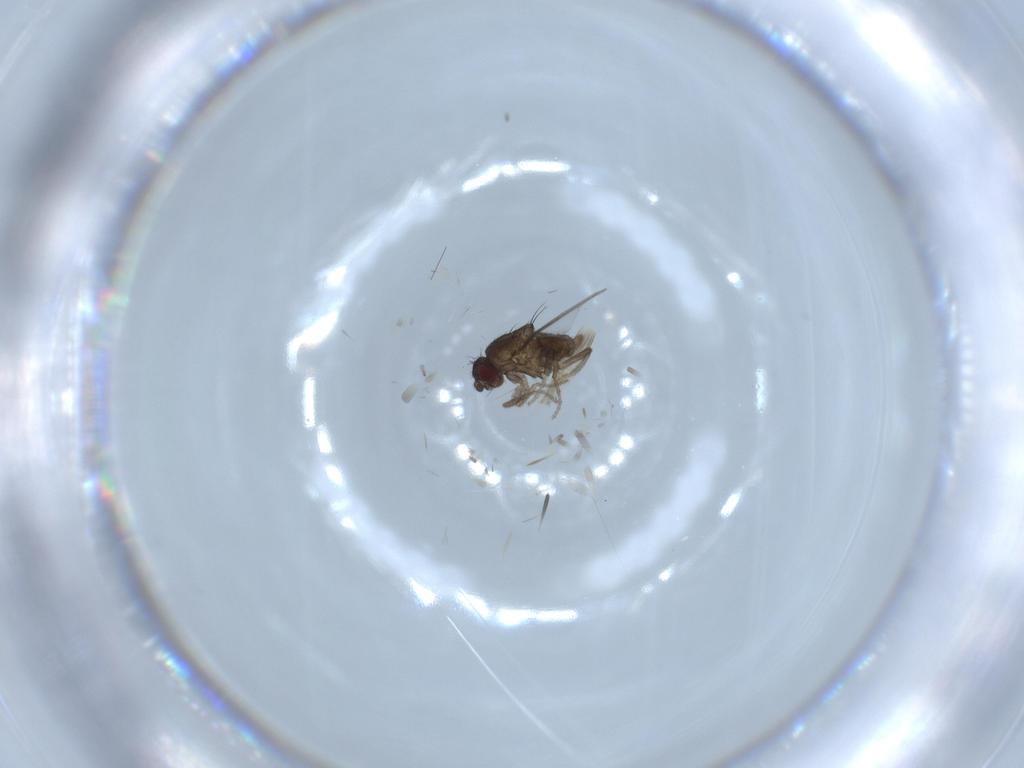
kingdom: Animalia
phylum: Arthropoda
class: Insecta
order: Diptera
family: Sphaeroceridae
